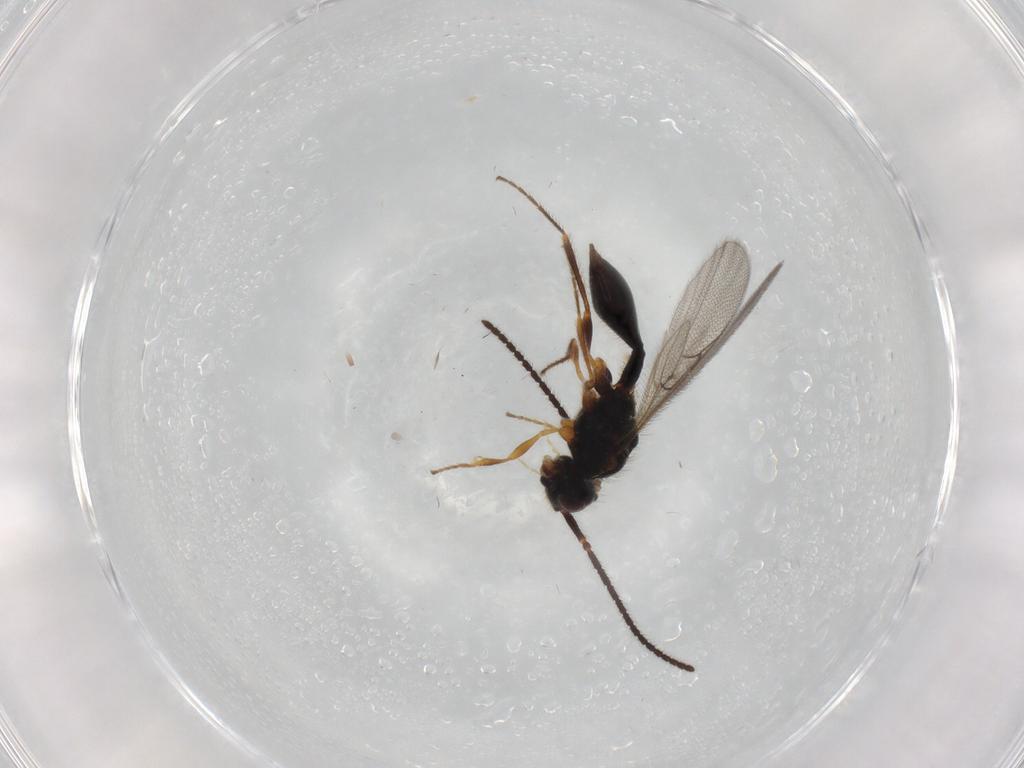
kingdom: Animalia
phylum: Arthropoda
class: Insecta
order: Hymenoptera
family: Diapriidae
